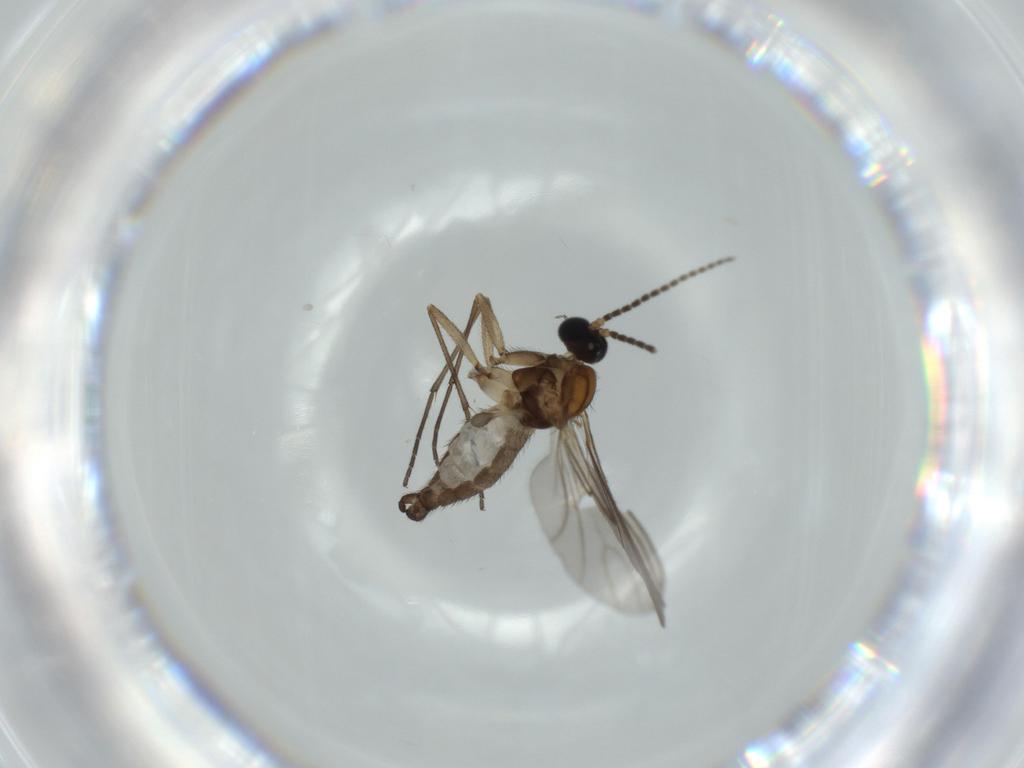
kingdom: Animalia
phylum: Arthropoda
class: Insecta
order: Diptera
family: Sciaridae
